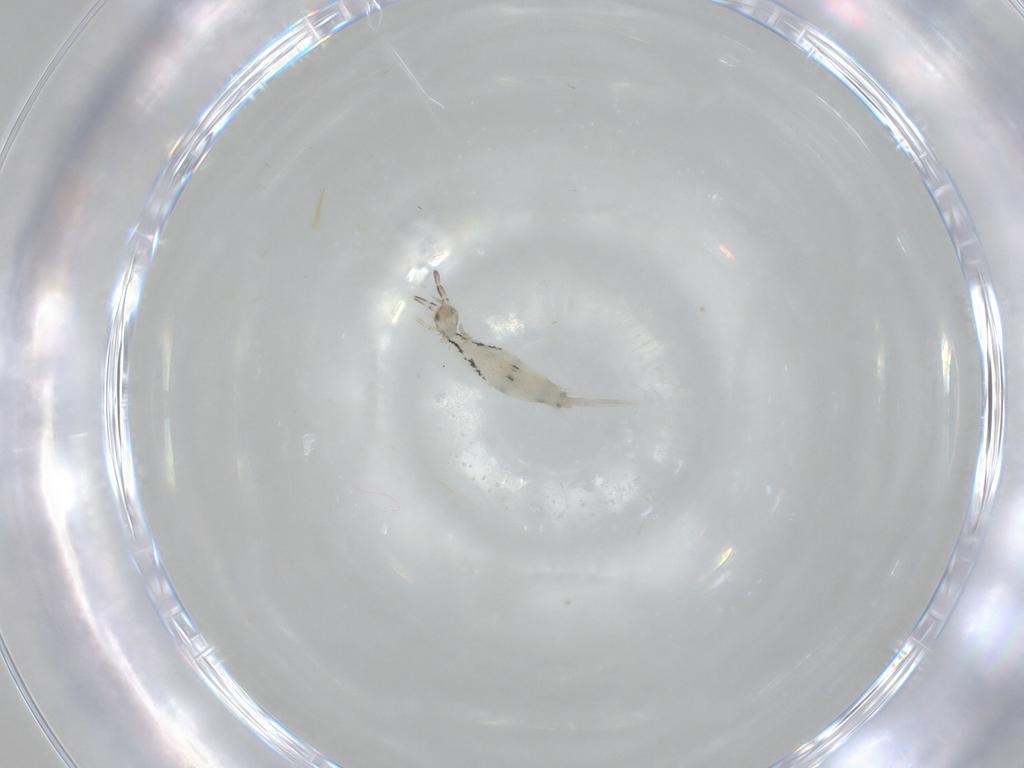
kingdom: Animalia
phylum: Arthropoda
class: Collembola
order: Entomobryomorpha
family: Entomobryidae
